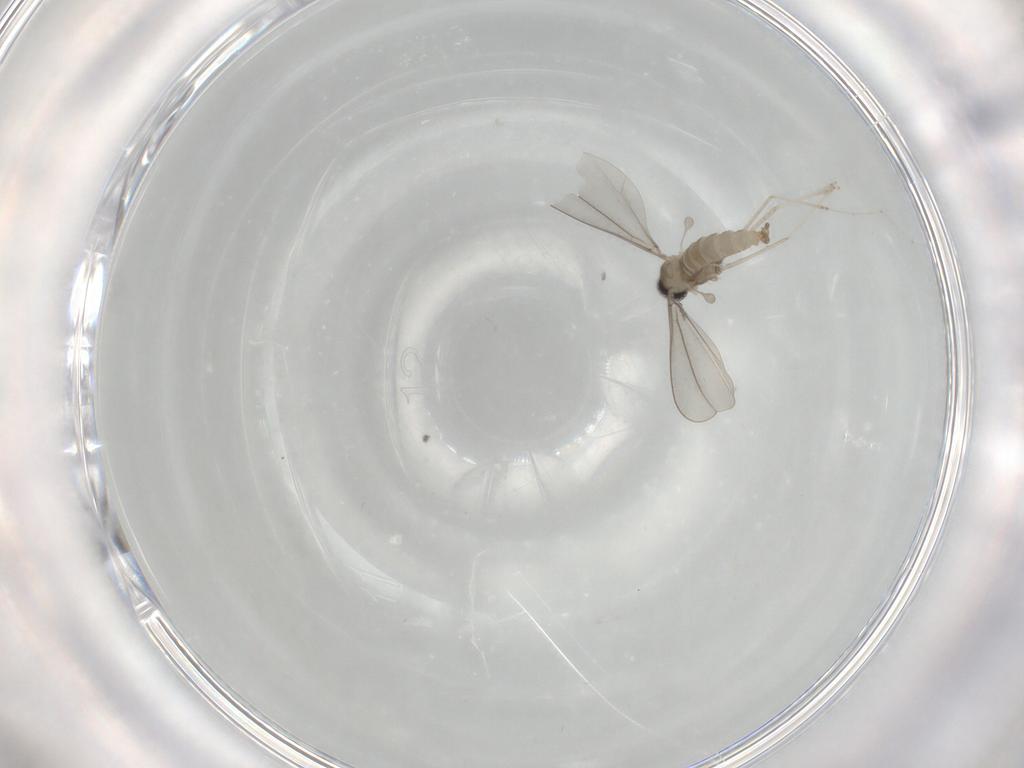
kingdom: Animalia
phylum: Arthropoda
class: Insecta
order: Diptera
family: Cecidomyiidae
